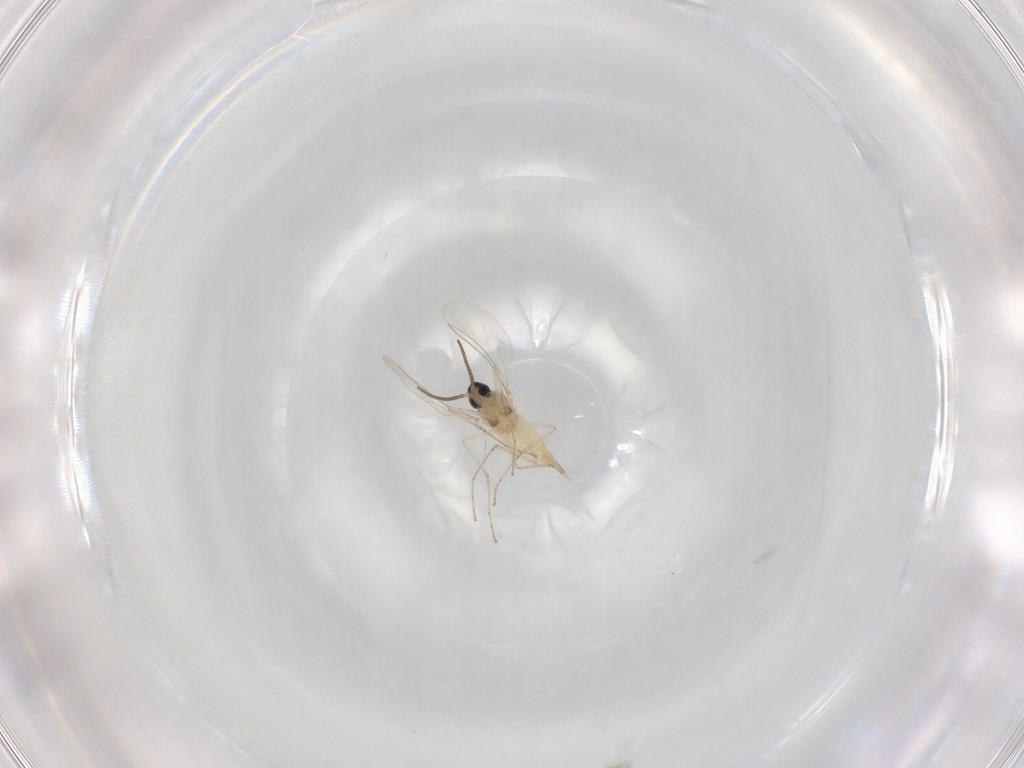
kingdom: Animalia
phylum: Arthropoda
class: Insecta
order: Diptera
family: Cecidomyiidae
